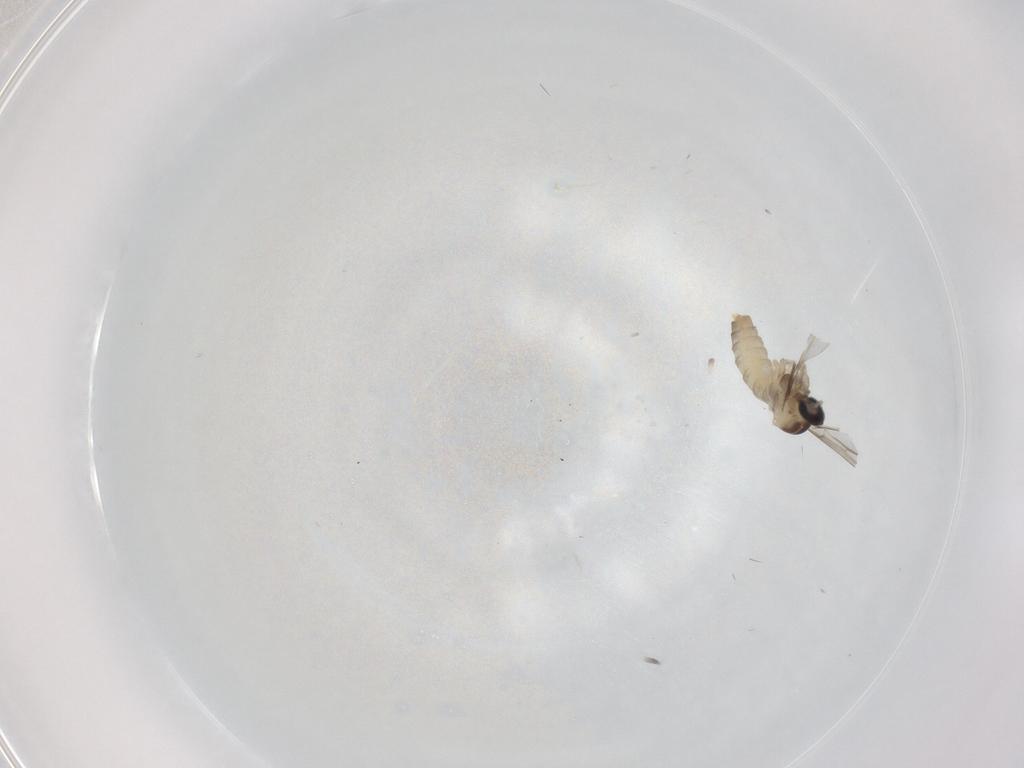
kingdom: Animalia
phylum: Arthropoda
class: Insecta
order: Diptera
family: Cecidomyiidae
